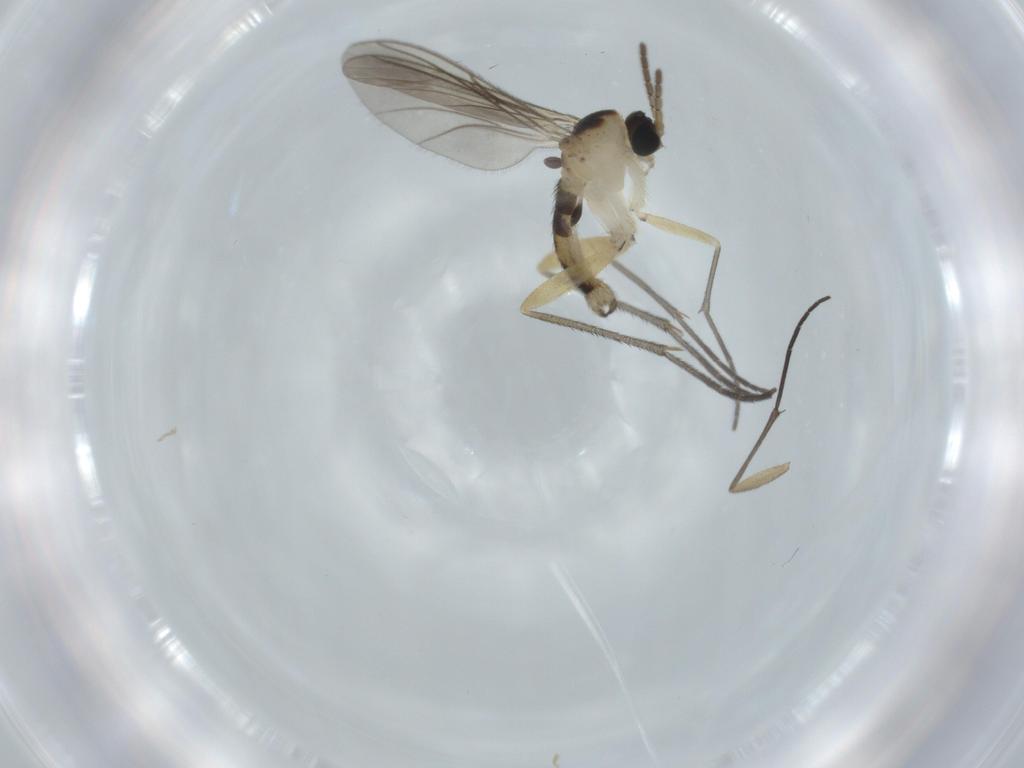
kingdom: Animalia
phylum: Arthropoda
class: Insecta
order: Diptera
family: Sciaridae
